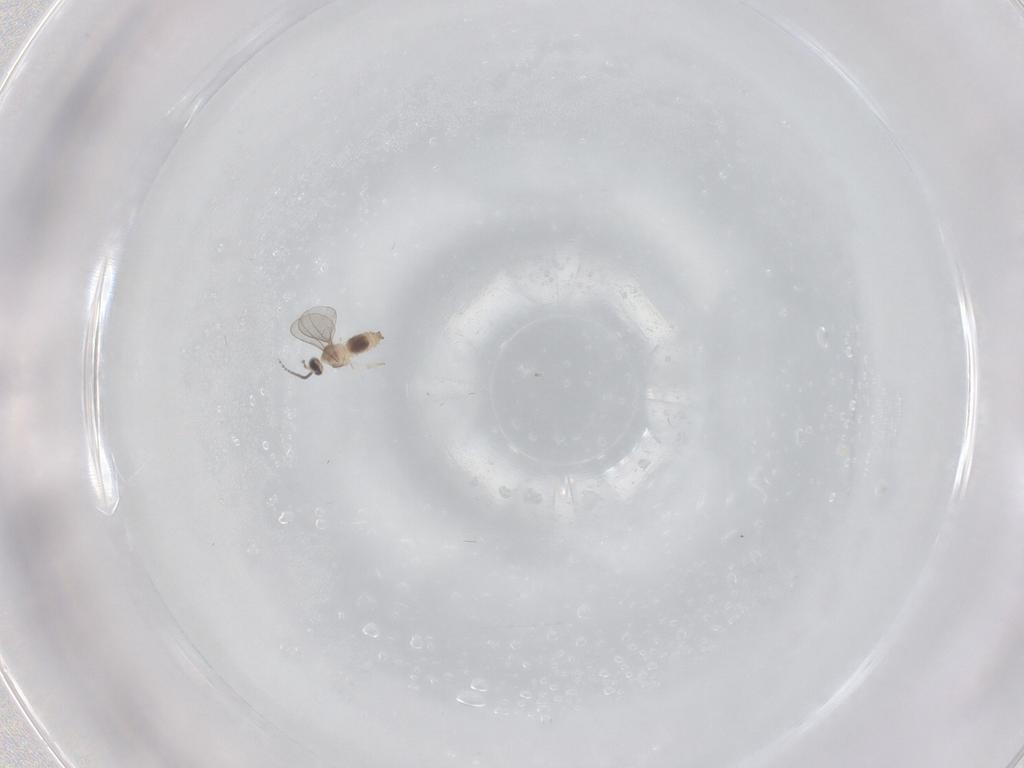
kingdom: Animalia
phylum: Arthropoda
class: Insecta
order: Diptera
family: Cecidomyiidae
